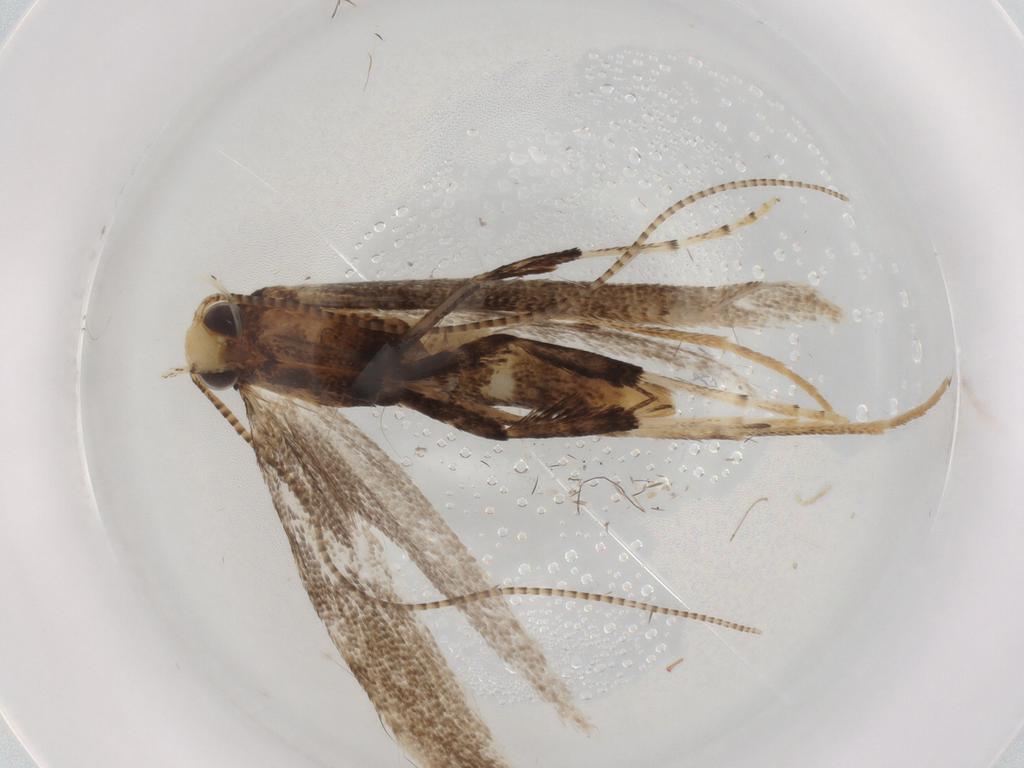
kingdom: Animalia
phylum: Arthropoda
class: Insecta
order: Lepidoptera
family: Gracillariidae
